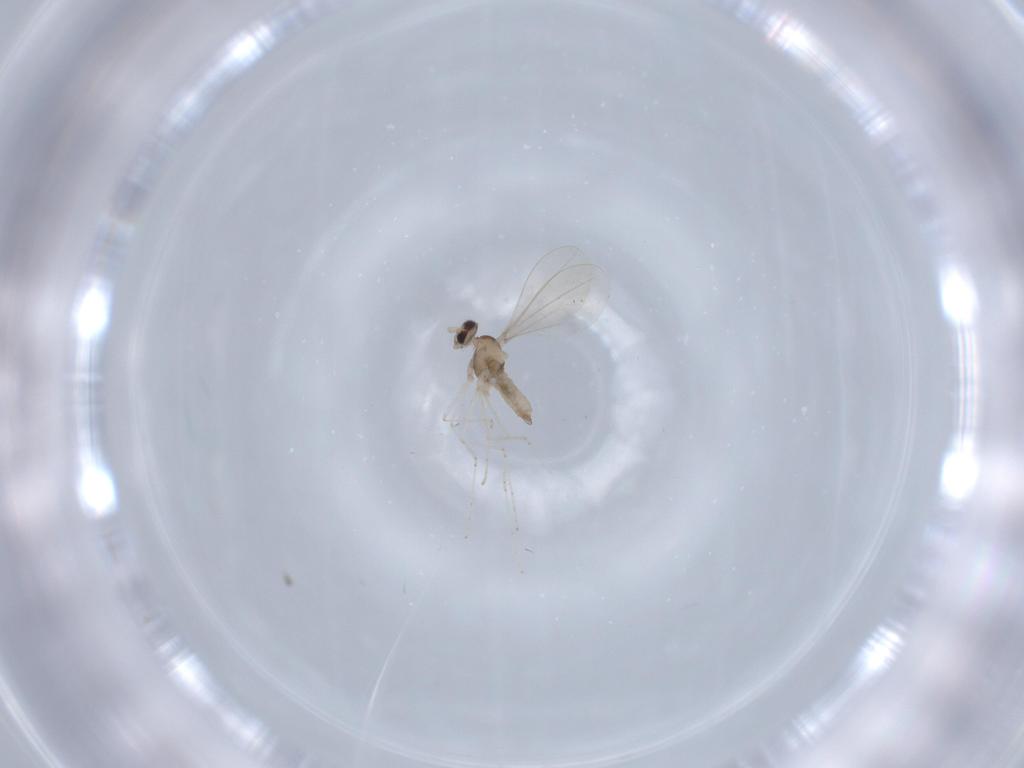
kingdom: Animalia
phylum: Arthropoda
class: Insecta
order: Diptera
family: Cecidomyiidae
